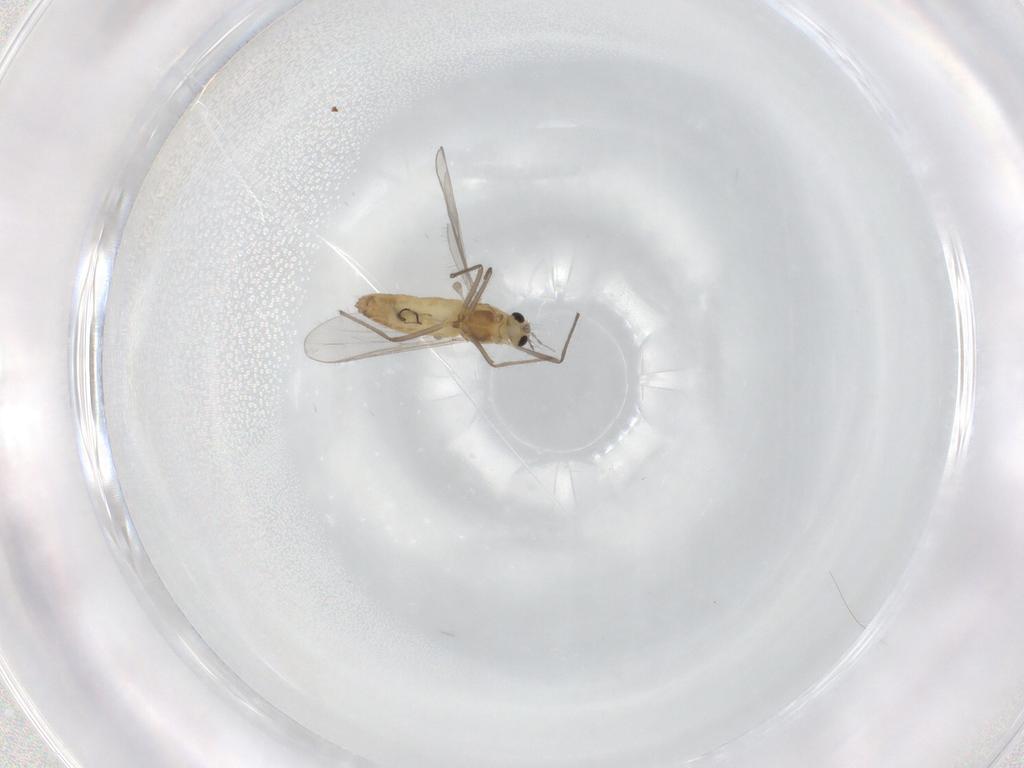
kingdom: Animalia
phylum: Arthropoda
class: Insecta
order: Diptera
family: Chironomidae
